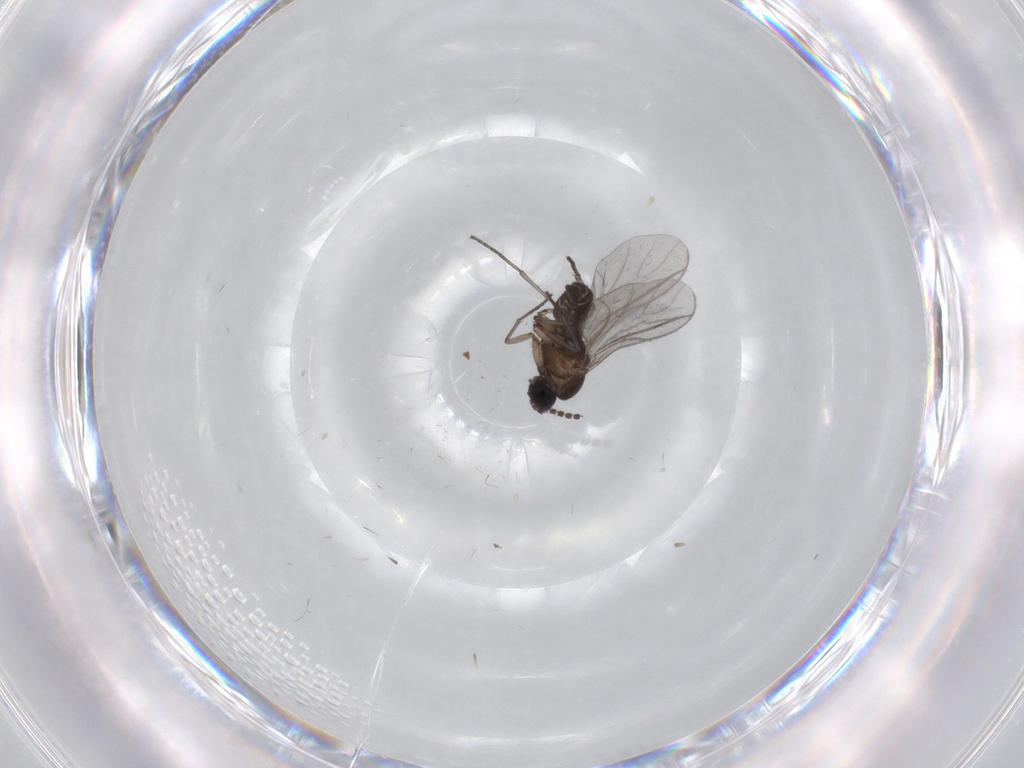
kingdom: Animalia
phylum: Arthropoda
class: Insecta
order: Diptera
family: Phoridae
